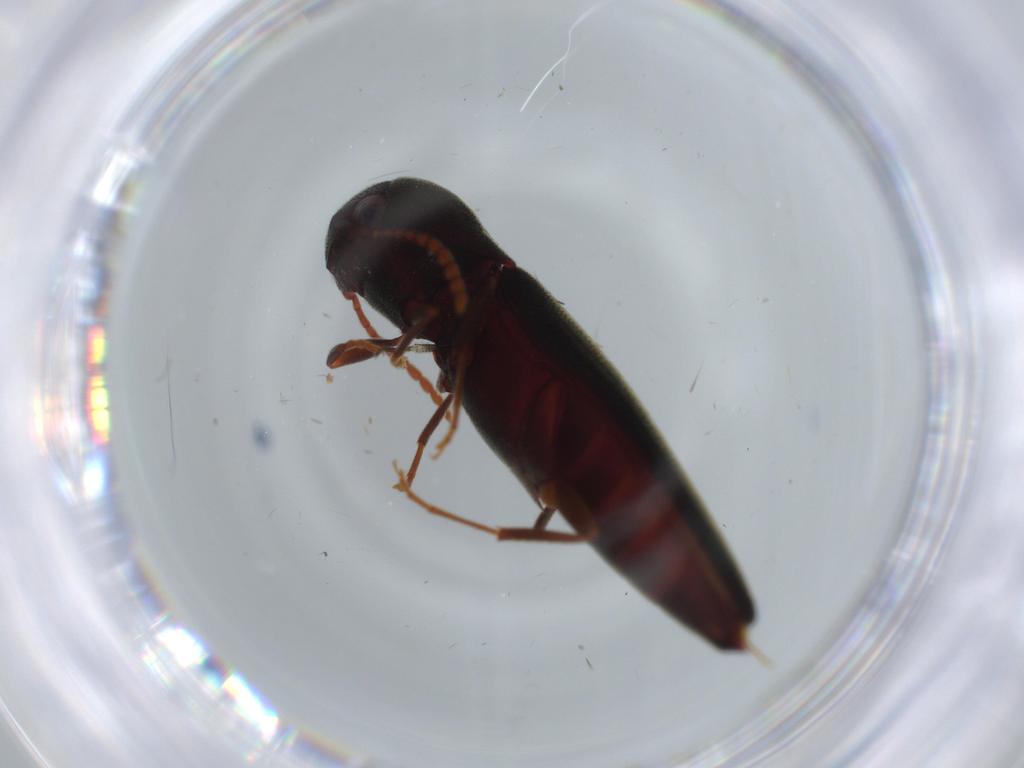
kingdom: Animalia
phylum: Arthropoda
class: Insecta
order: Coleoptera
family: Eucnemidae
